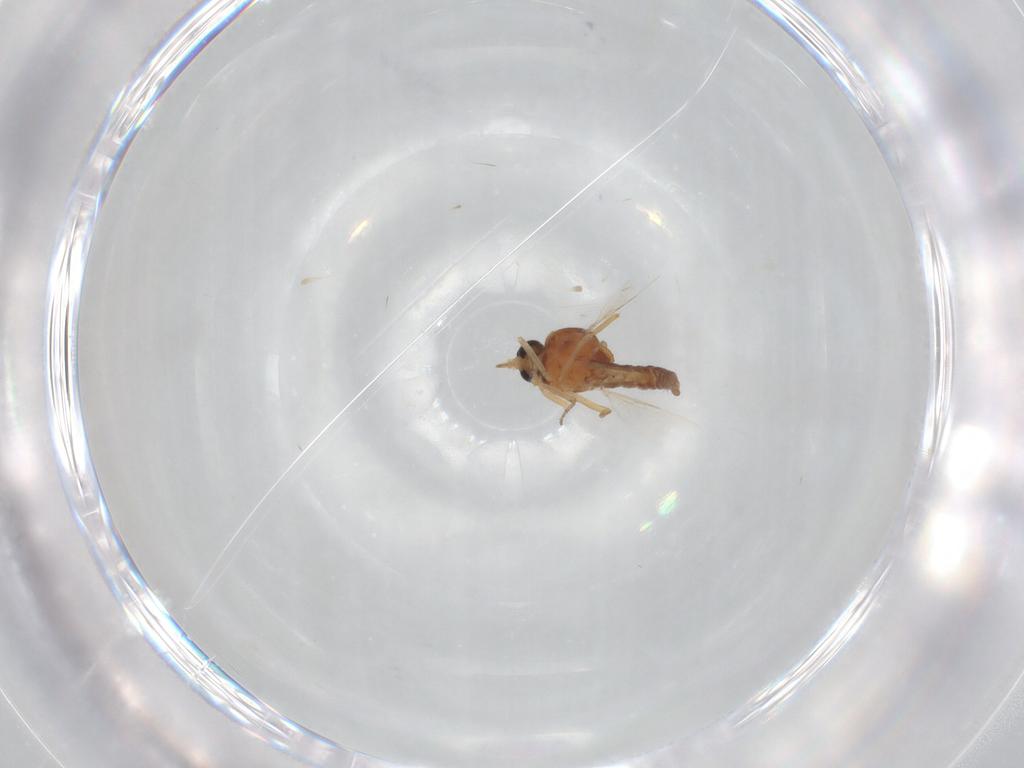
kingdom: Animalia
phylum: Arthropoda
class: Insecta
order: Diptera
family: Ceratopogonidae
